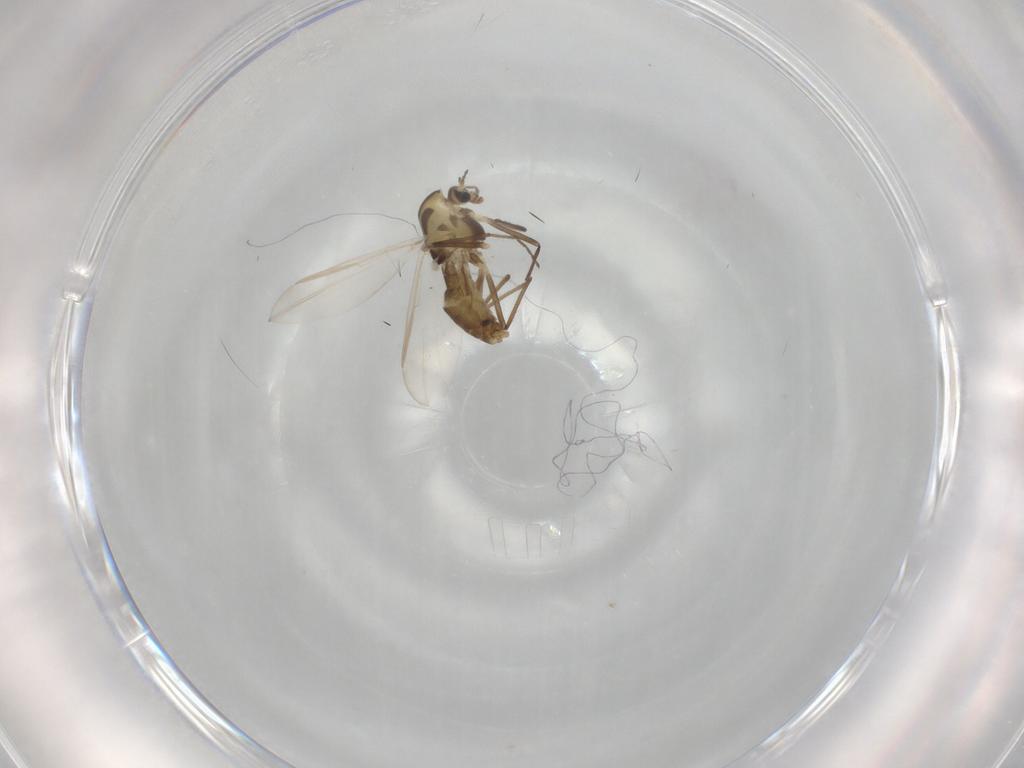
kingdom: Animalia
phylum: Arthropoda
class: Insecta
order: Diptera
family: Chironomidae
